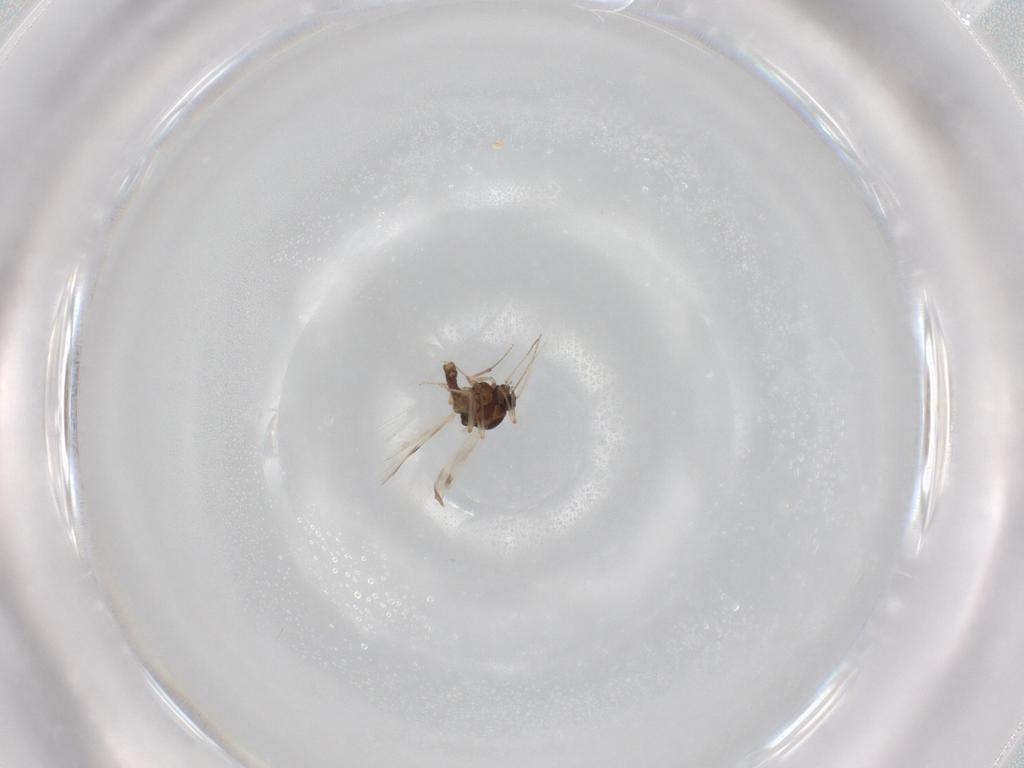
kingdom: Animalia
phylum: Arthropoda
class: Insecta
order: Diptera
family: Ceratopogonidae
